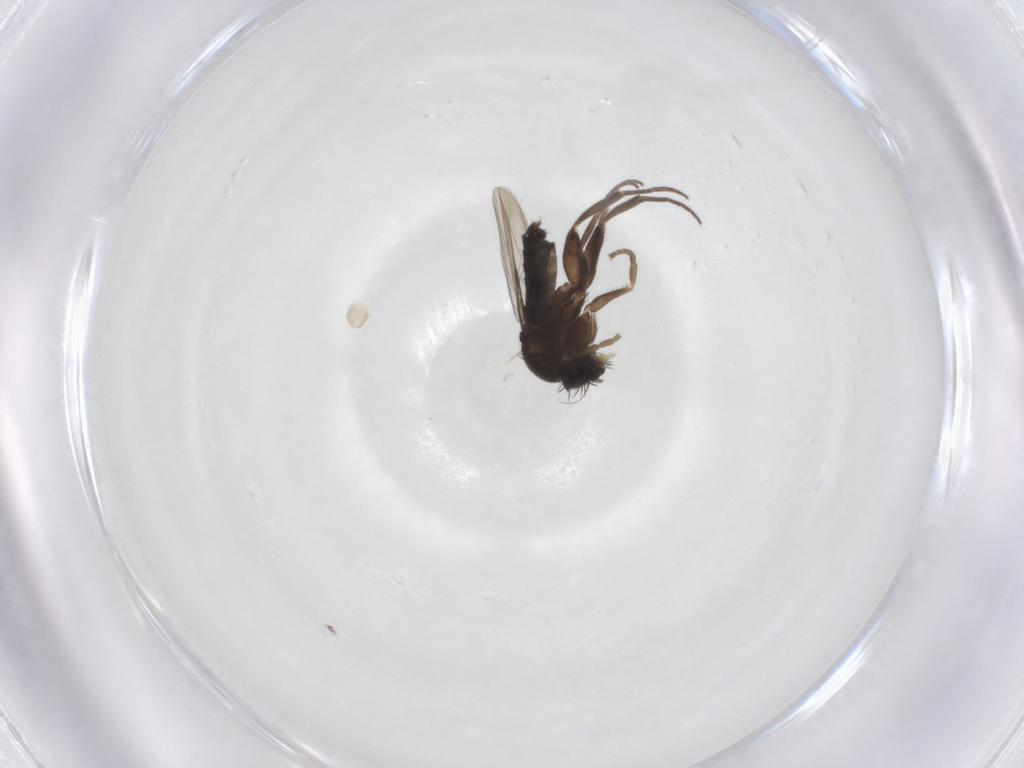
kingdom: Animalia
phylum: Arthropoda
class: Insecta
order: Diptera
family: Phoridae
